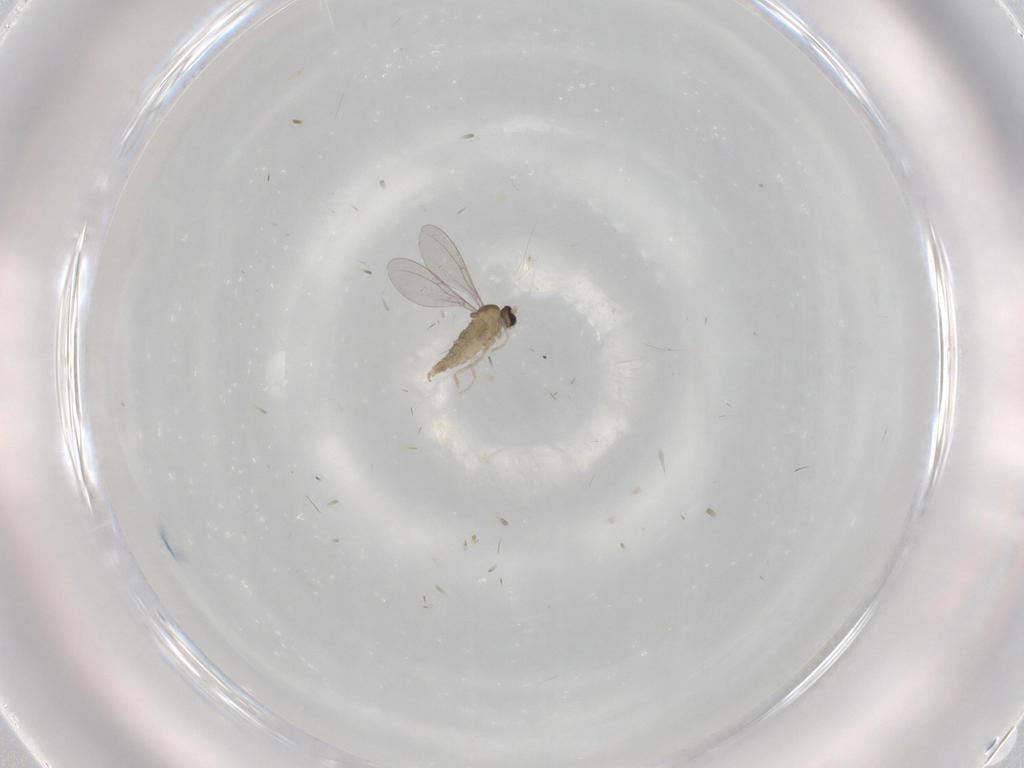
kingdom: Animalia
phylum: Arthropoda
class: Insecta
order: Diptera
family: Cecidomyiidae
